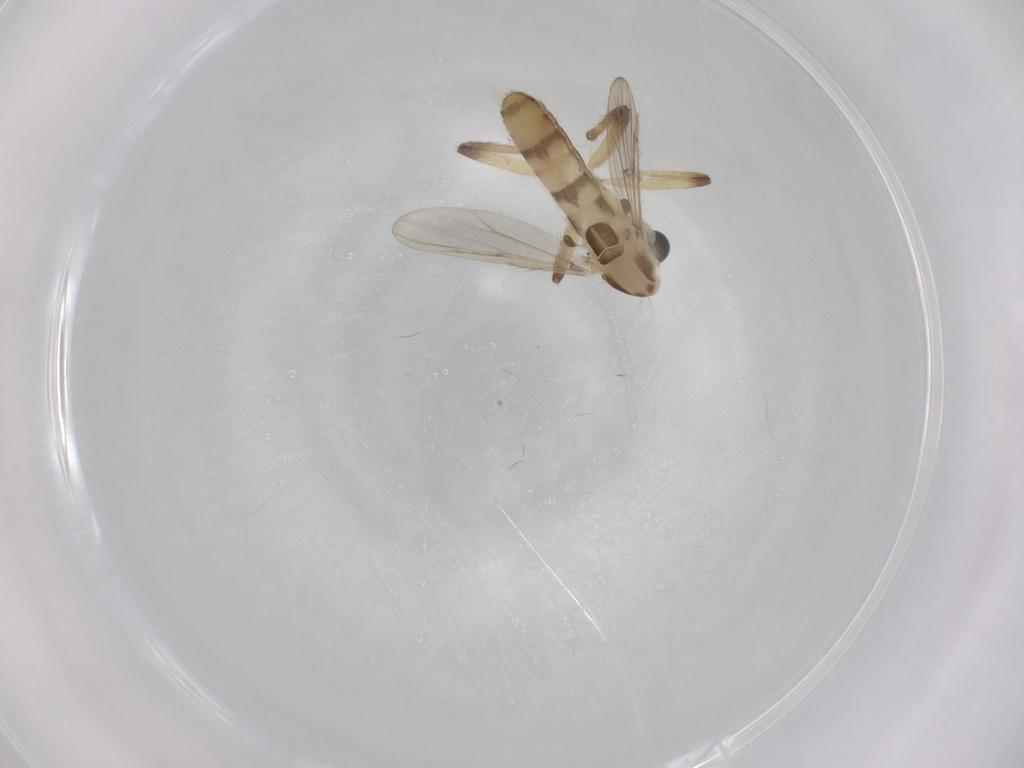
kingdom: Animalia
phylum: Arthropoda
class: Insecta
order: Diptera
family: Chironomidae
